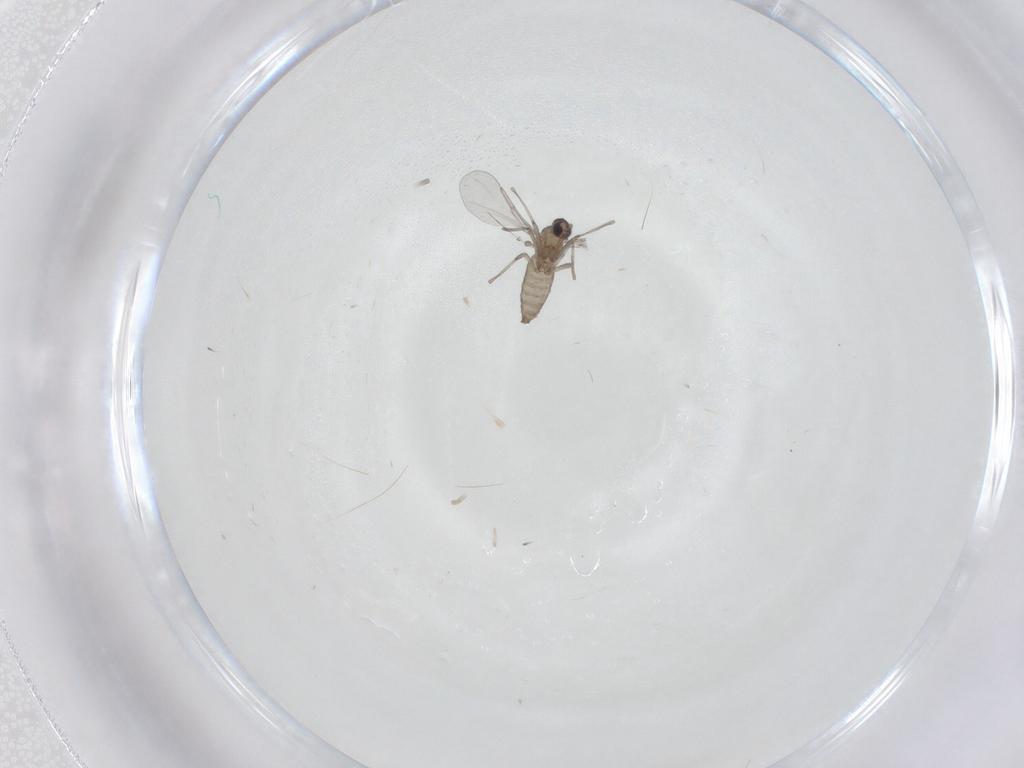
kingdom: Animalia
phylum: Arthropoda
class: Insecta
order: Diptera
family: Cecidomyiidae
